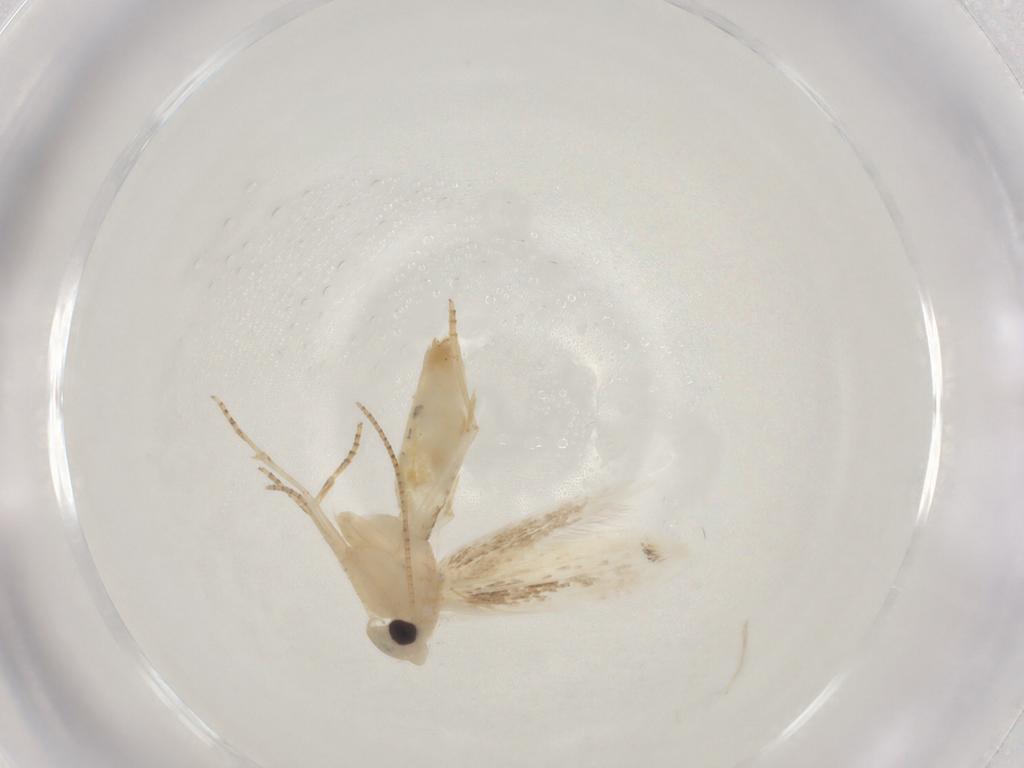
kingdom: Animalia
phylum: Arthropoda
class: Insecta
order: Lepidoptera
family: Bucculatricidae
